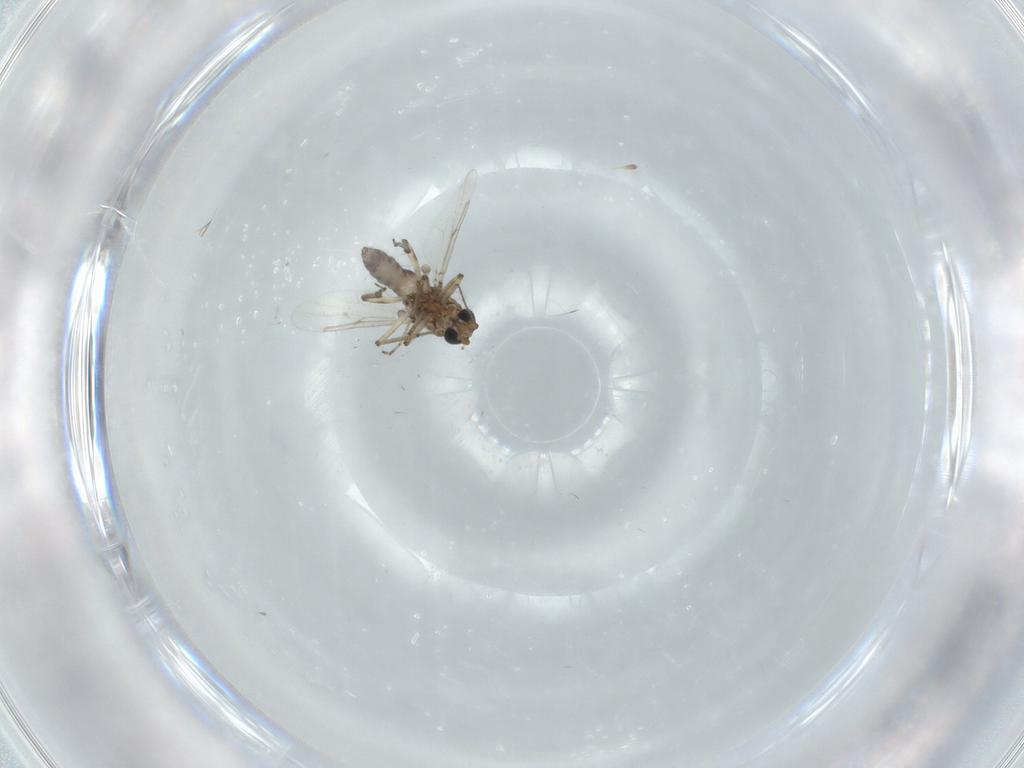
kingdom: Animalia
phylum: Arthropoda
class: Insecta
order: Diptera
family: Ceratopogonidae
